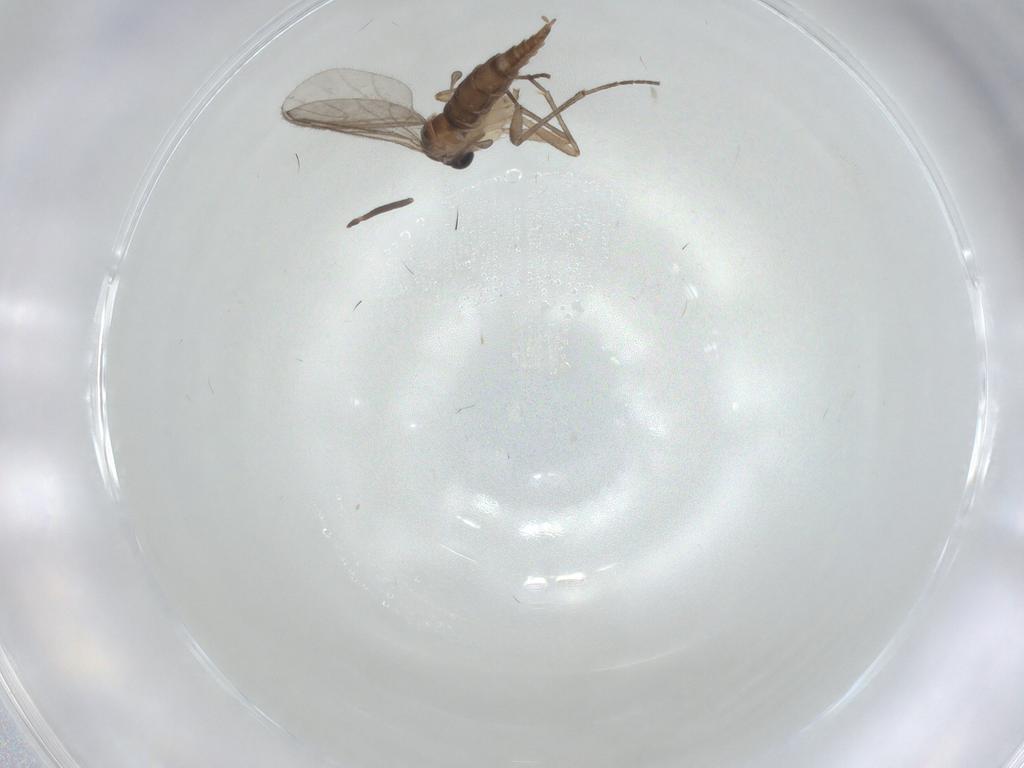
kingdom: Animalia
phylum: Arthropoda
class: Insecta
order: Diptera
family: Sciaridae
